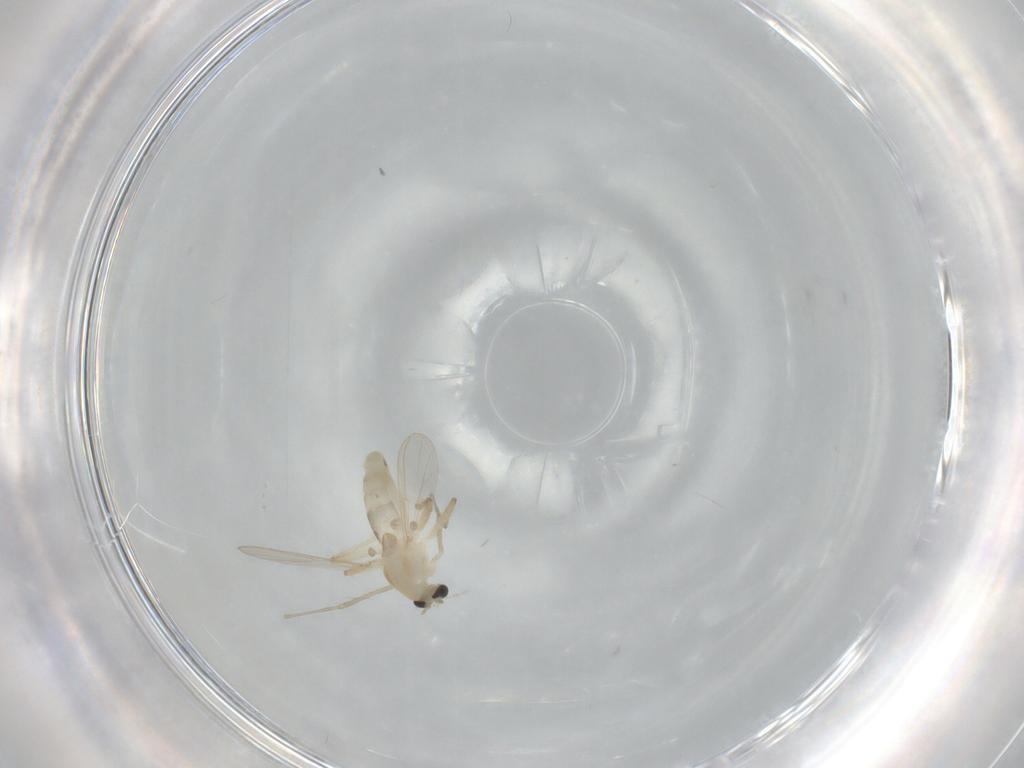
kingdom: Animalia
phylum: Arthropoda
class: Insecta
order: Diptera
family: Chironomidae
